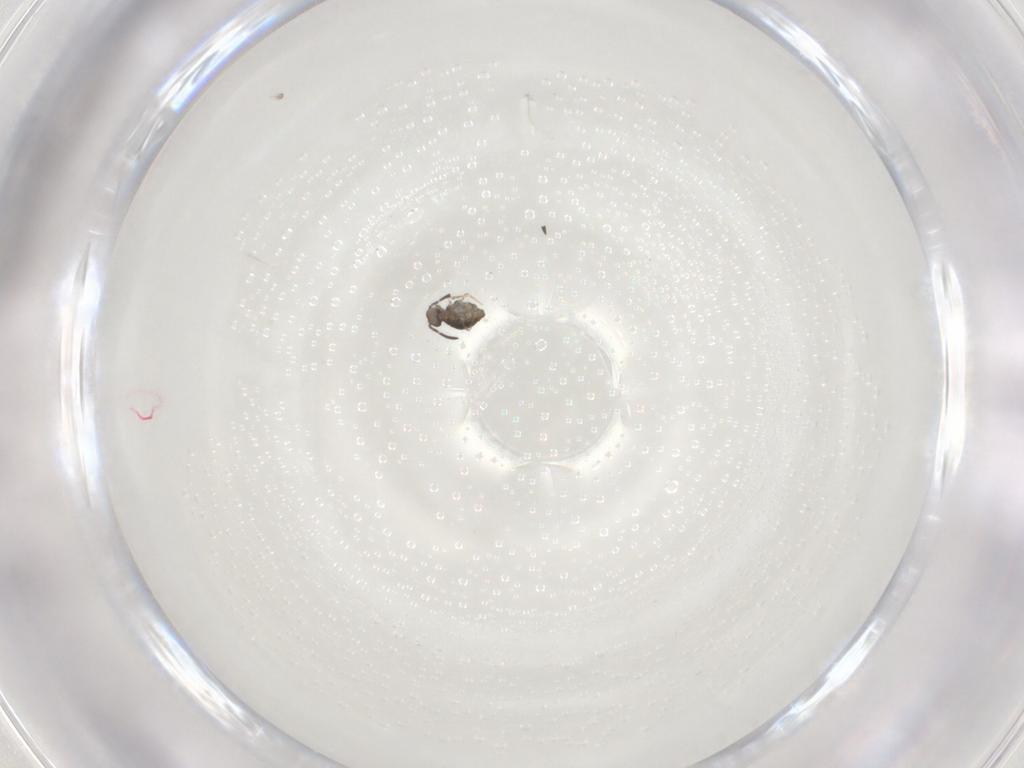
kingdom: Animalia
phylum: Arthropoda
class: Collembola
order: Symphypleona
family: Katiannidae
